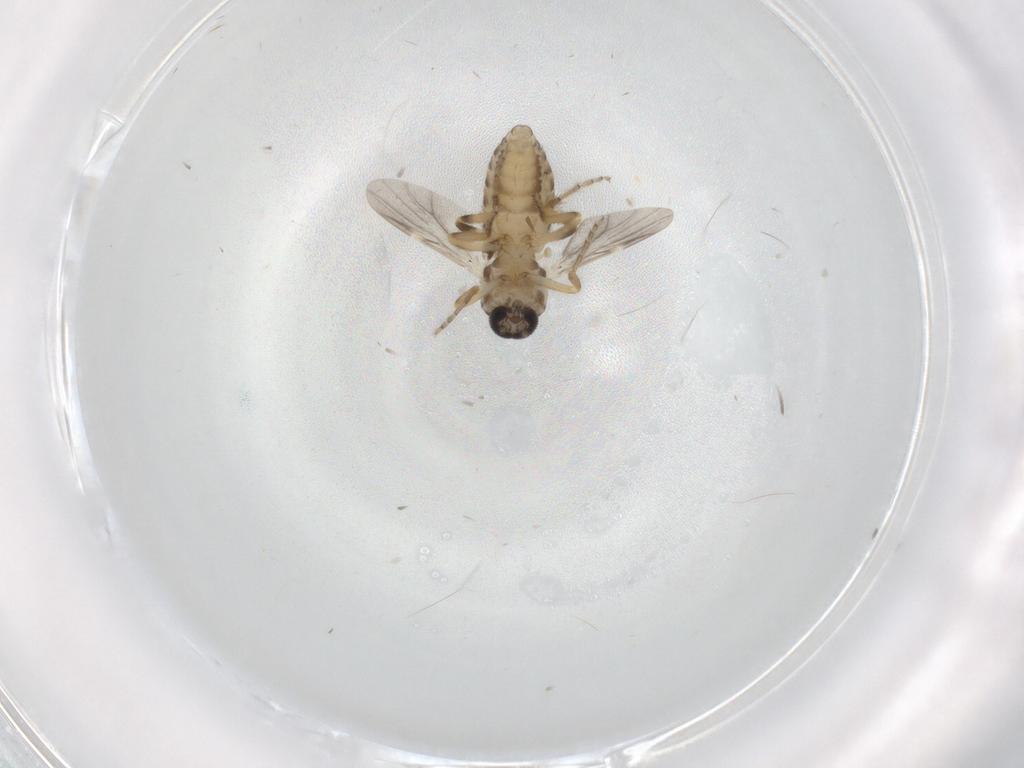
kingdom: Animalia
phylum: Arthropoda
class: Insecta
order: Diptera
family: Ceratopogonidae
